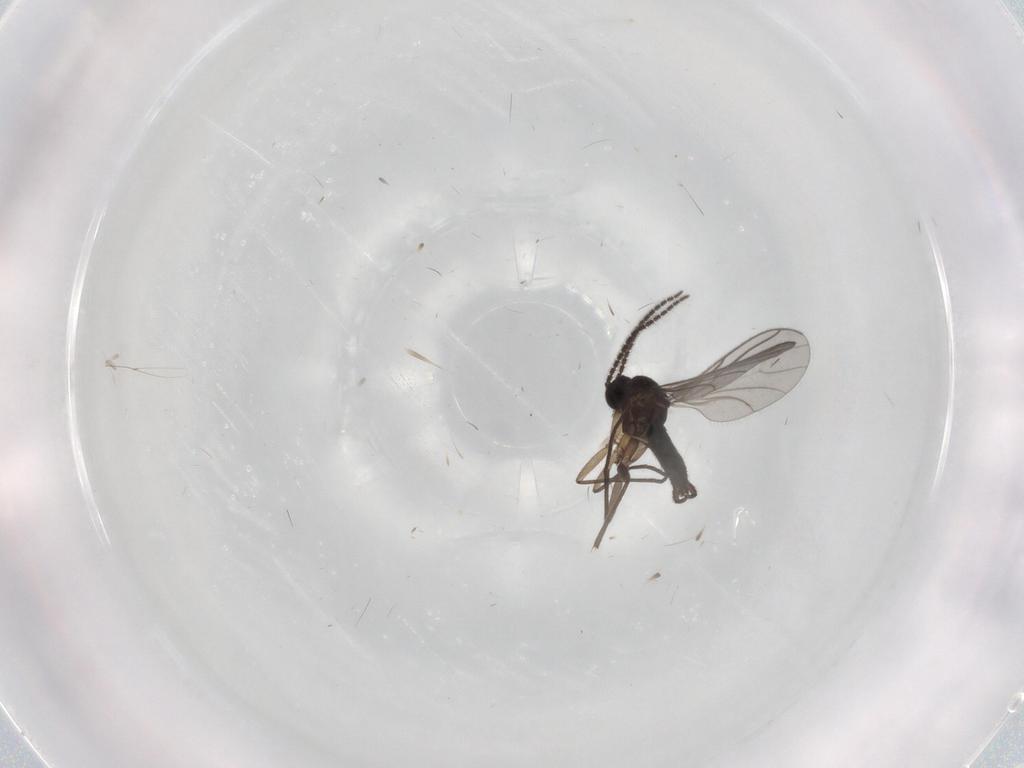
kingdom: Animalia
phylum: Arthropoda
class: Insecta
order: Diptera
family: Sciaridae
